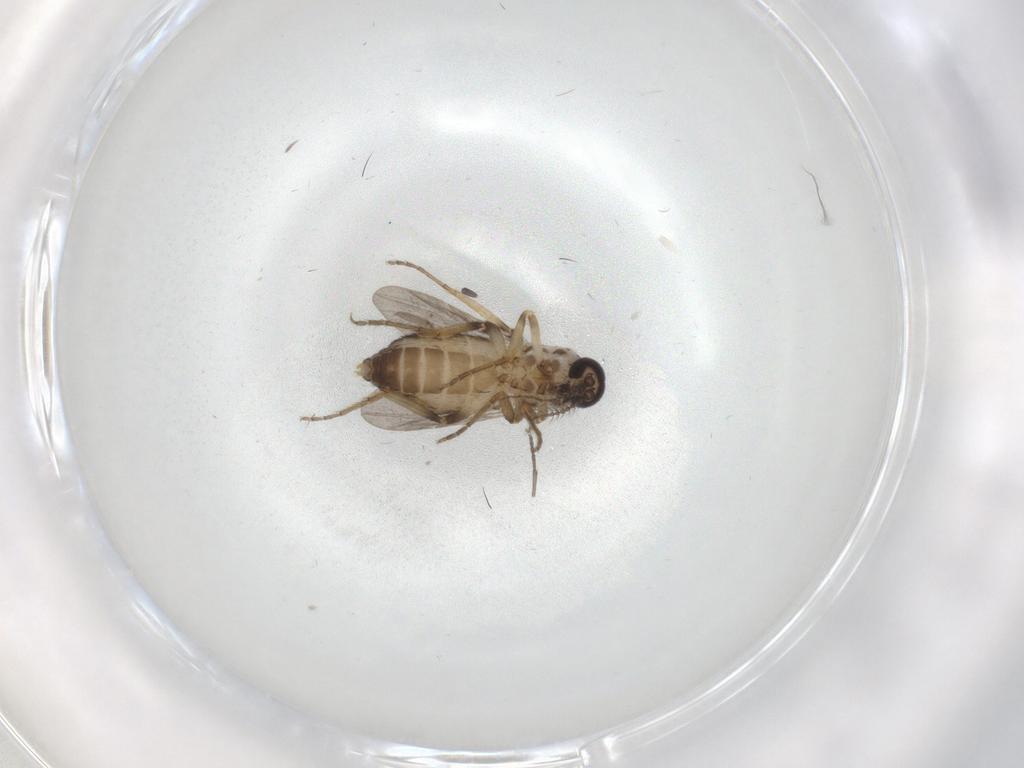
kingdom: Animalia
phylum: Arthropoda
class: Insecta
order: Diptera
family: Ceratopogonidae
